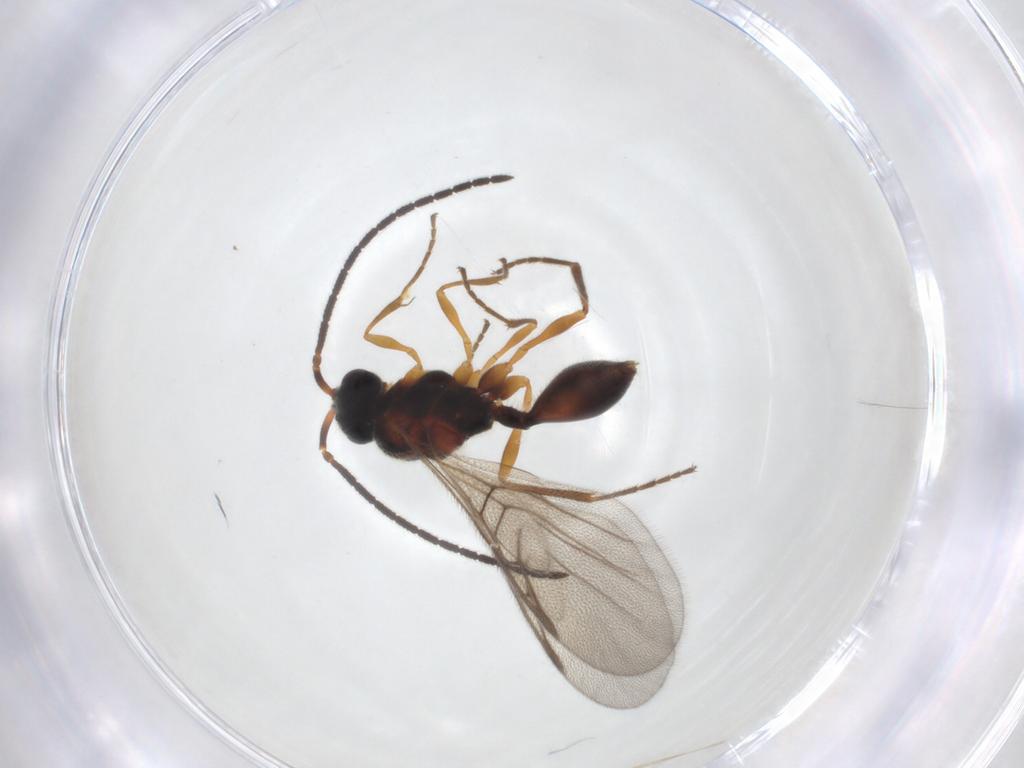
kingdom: Animalia
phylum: Arthropoda
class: Insecta
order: Hymenoptera
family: Diapriidae
